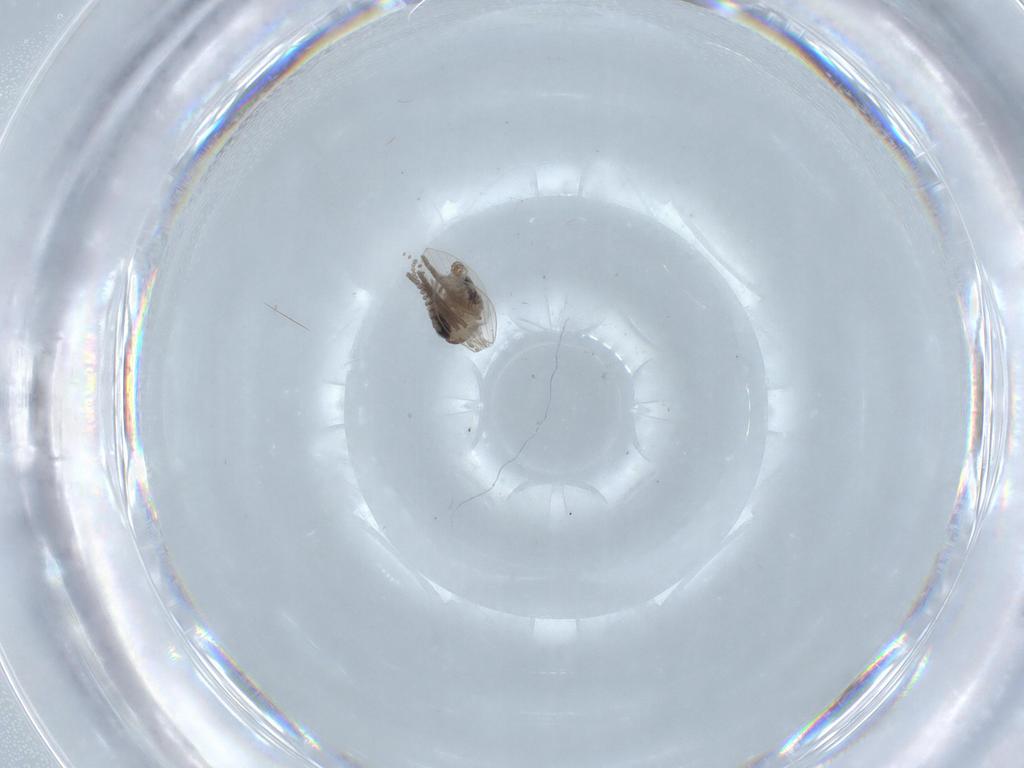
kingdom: Animalia
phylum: Arthropoda
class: Insecta
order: Diptera
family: Psychodidae
